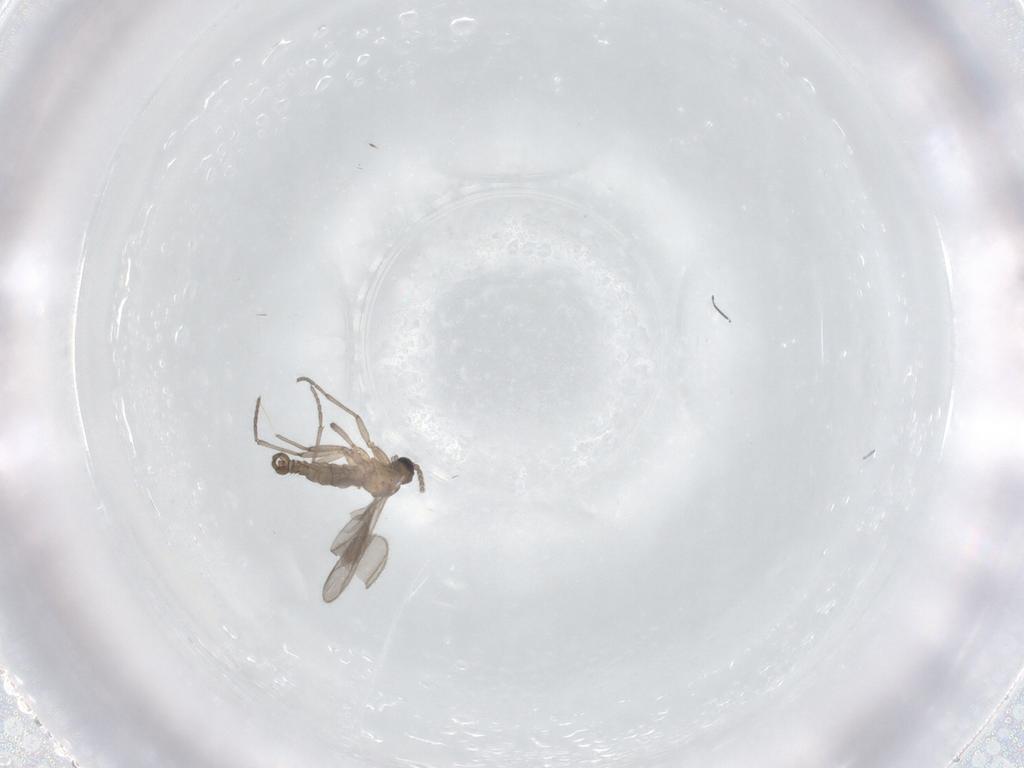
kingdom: Animalia
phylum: Arthropoda
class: Insecta
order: Diptera
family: Sciaridae
